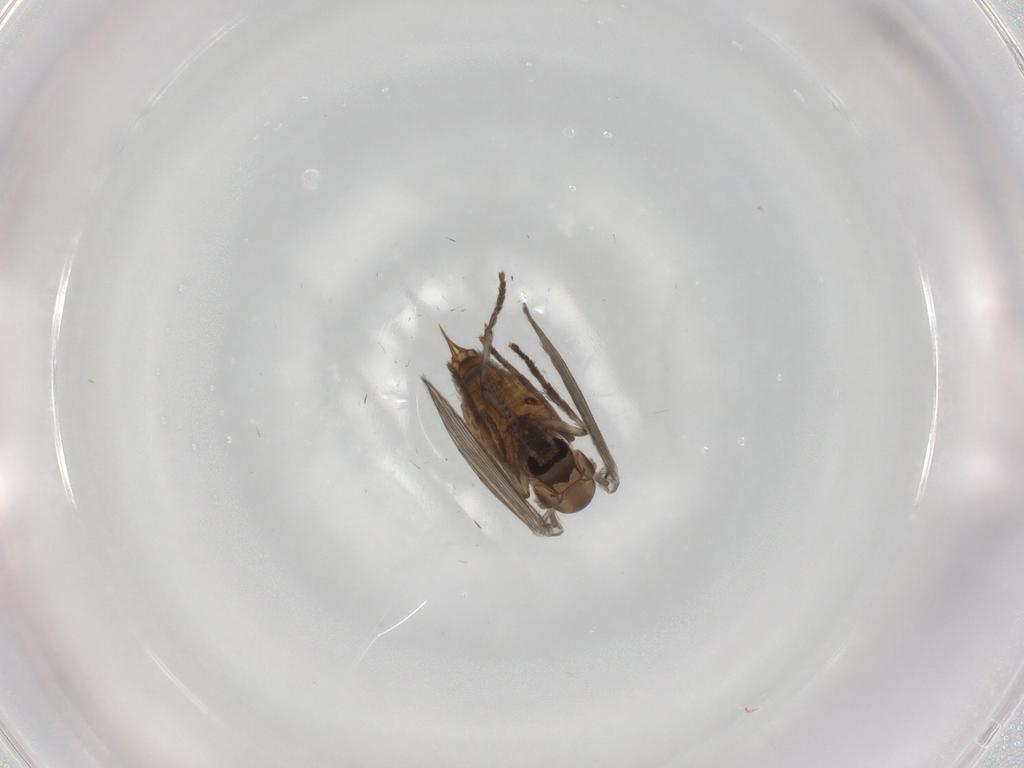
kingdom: Animalia
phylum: Arthropoda
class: Insecta
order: Diptera
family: Psychodidae
